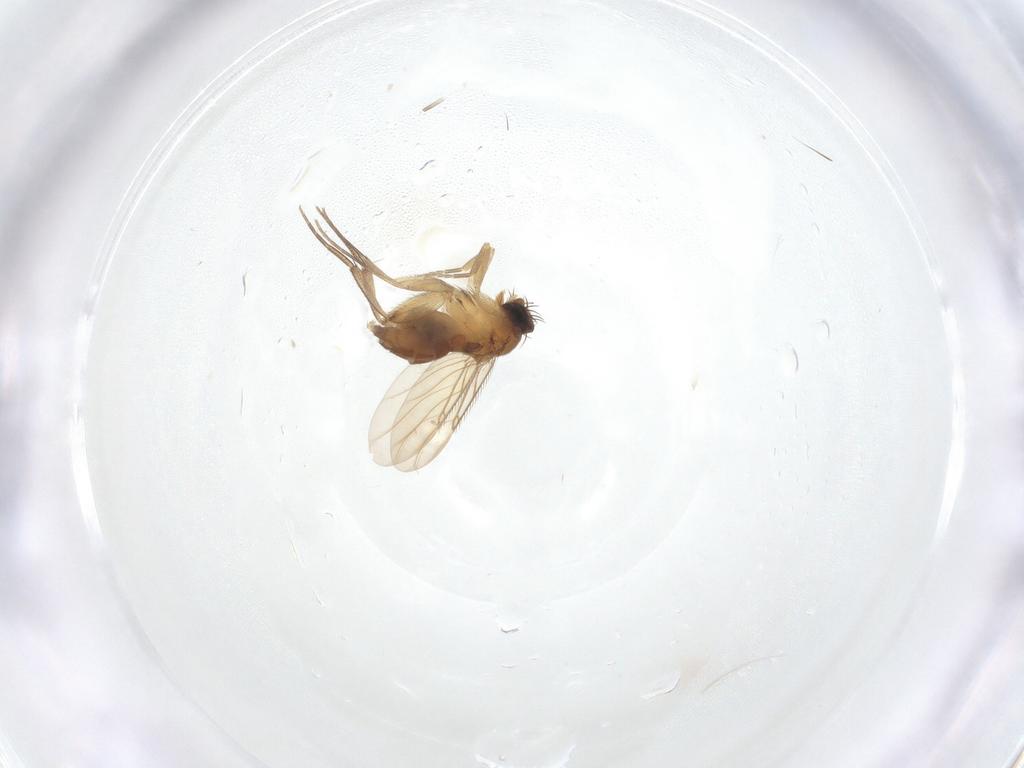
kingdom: Animalia
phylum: Arthropoda
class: Insecta
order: Diptera
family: Phoridae
